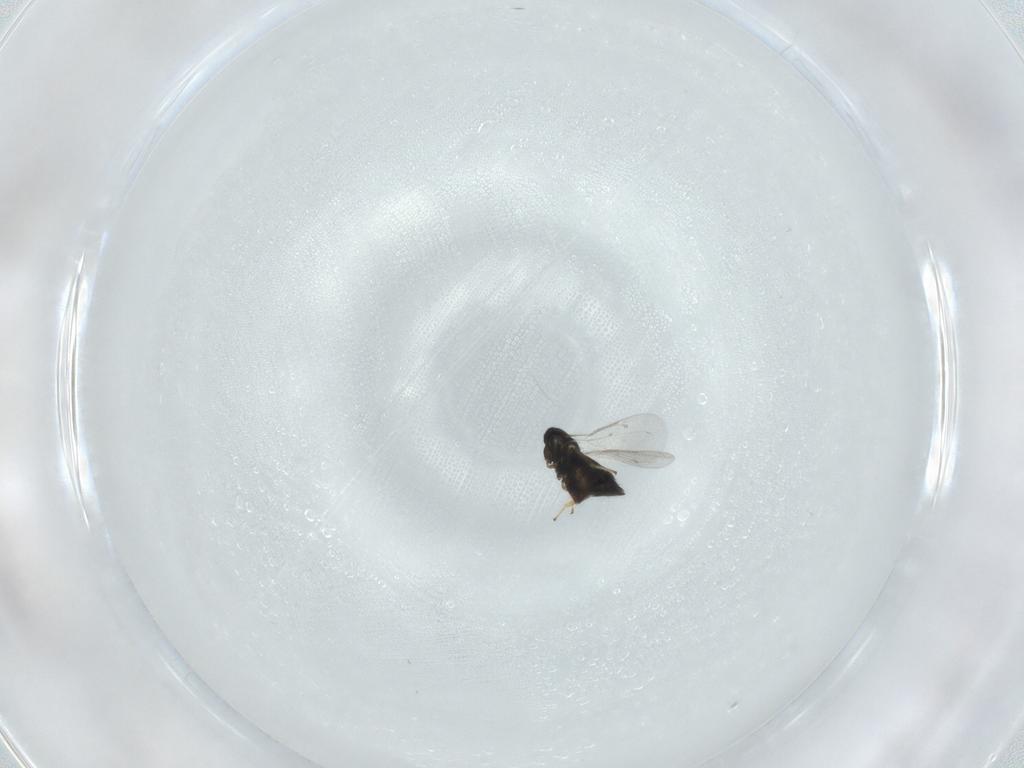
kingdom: Animalia
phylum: Arthropoda
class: Insecta
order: Hymenoptera
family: Eulophidae
